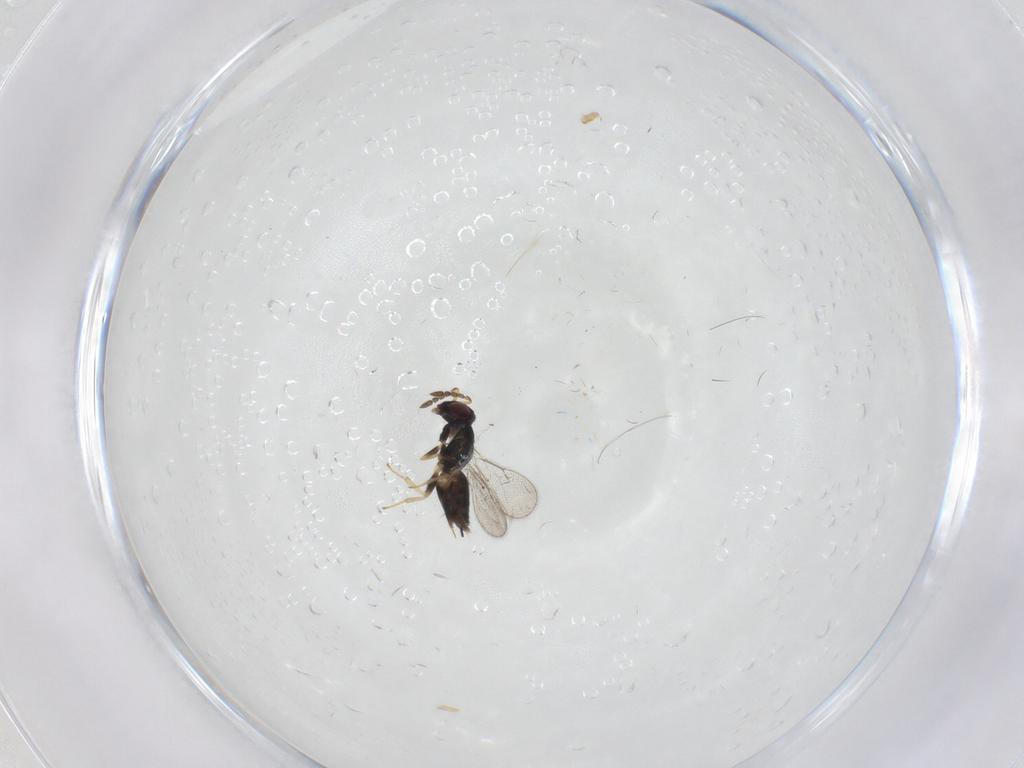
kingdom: Animalia
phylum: Arthropoda
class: Insecta
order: Hymenoptera
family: Eulophidae
